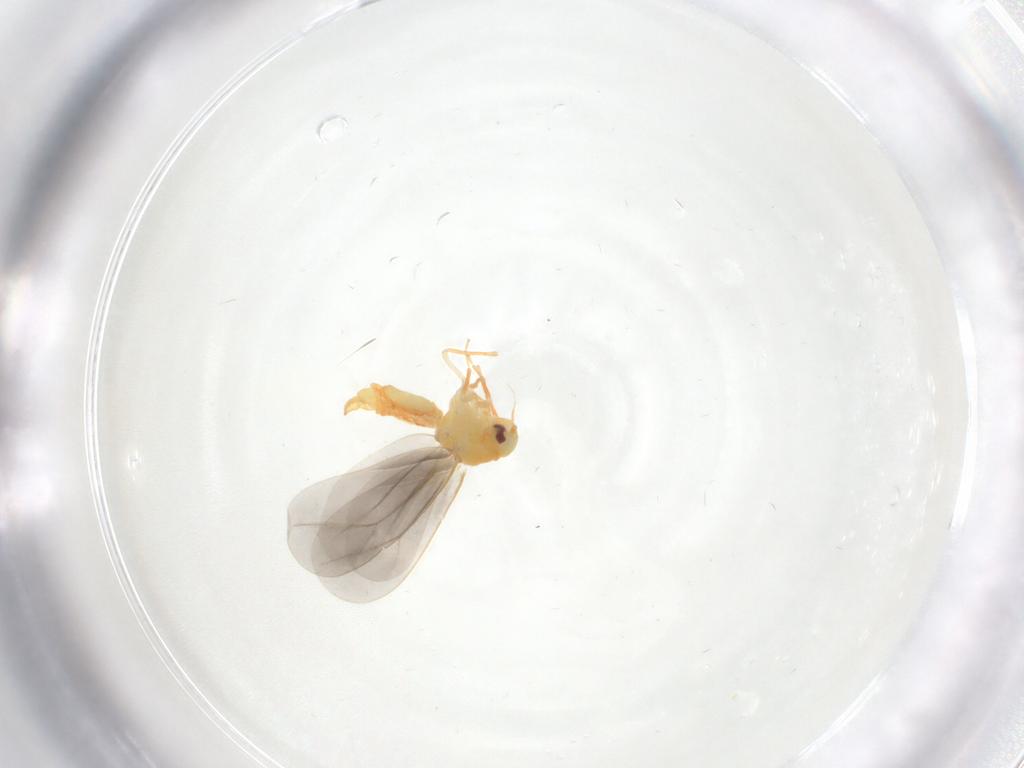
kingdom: Animalia
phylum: Arthropoda
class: Insecta
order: Hemiptera
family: Aleyrodidae
